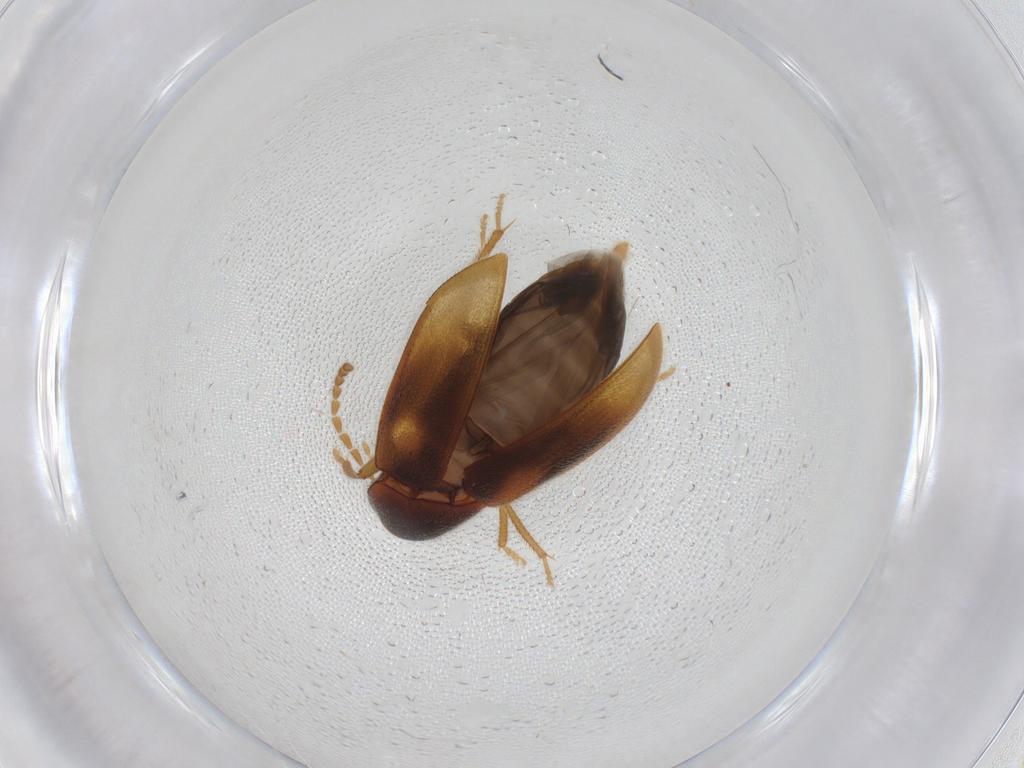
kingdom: Animalia
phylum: Arthropoda
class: Insecta
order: Coleoptera
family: Ptilodactylidae
